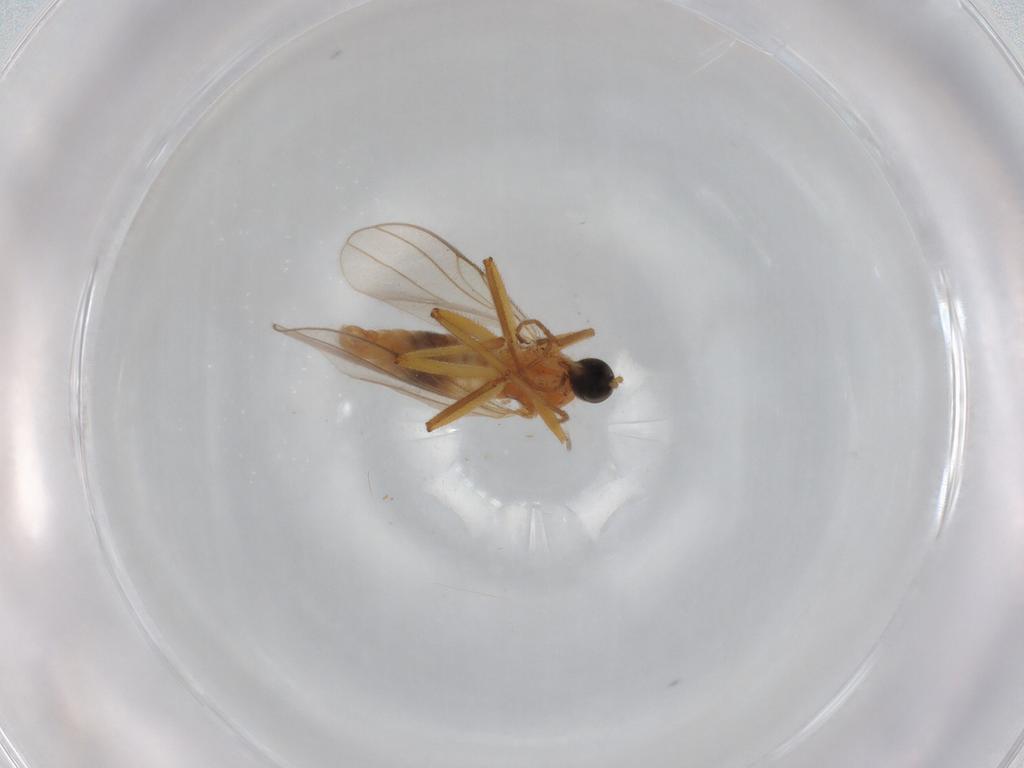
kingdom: Animalia
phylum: Arthropoda
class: Insecta
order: Diptera
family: Hybotidae
